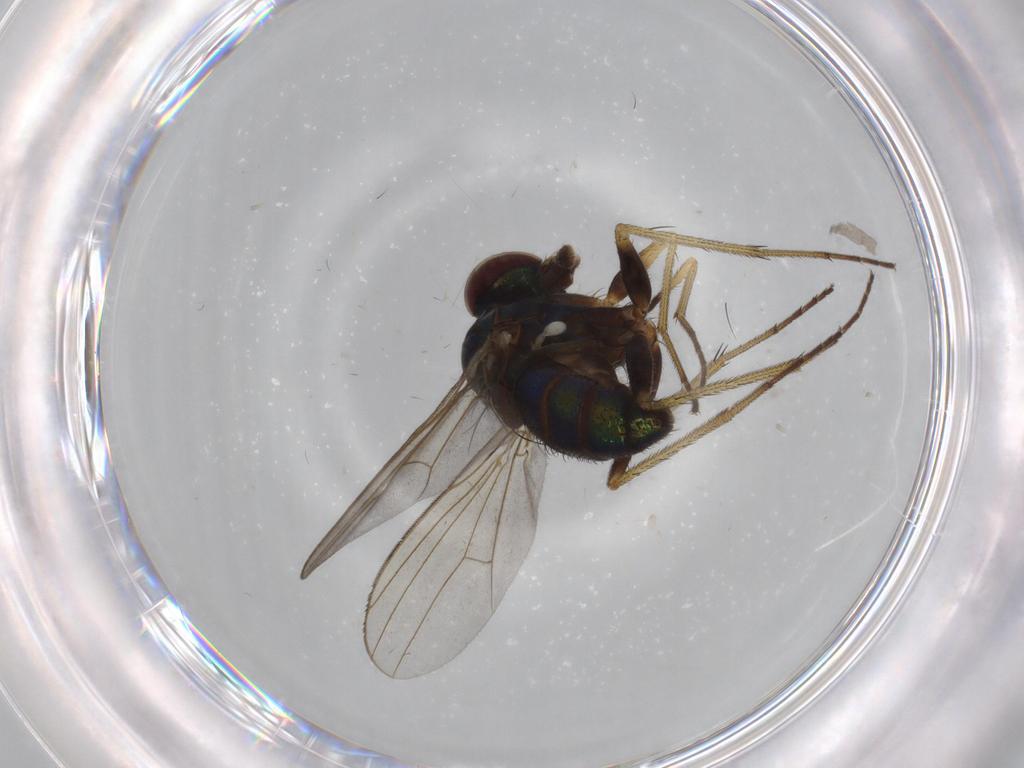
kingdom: Animalia
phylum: Arthropoda
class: Insecta
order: Diptera
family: Dolichopodidae
